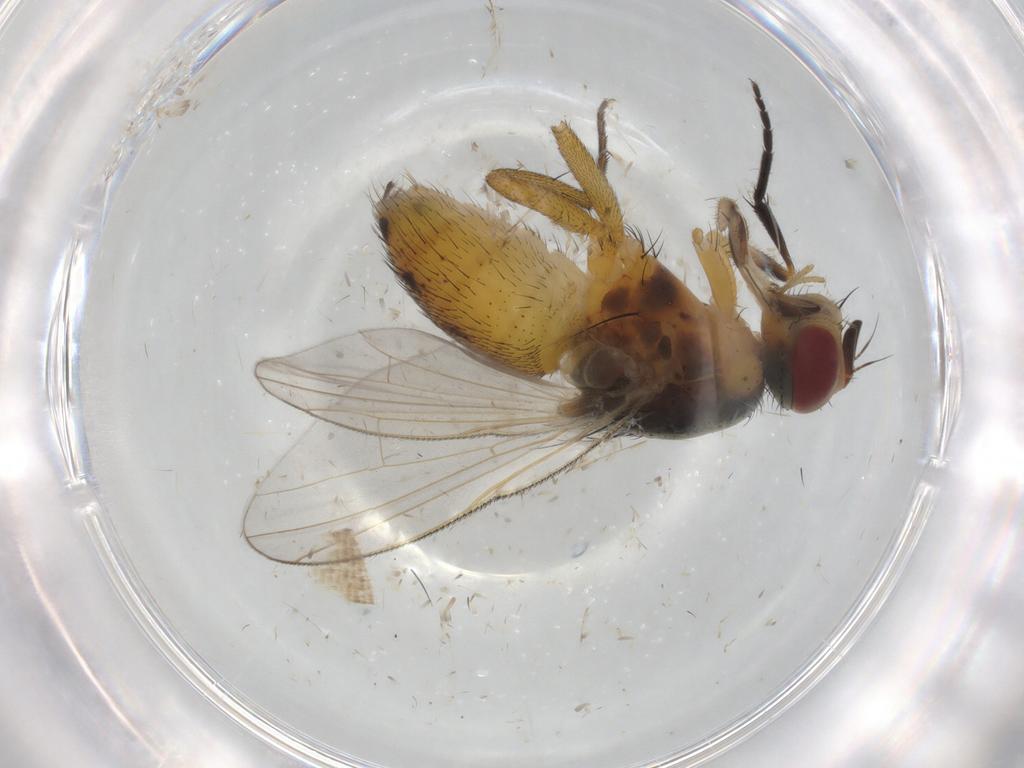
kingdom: Animalia
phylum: Arthropoda
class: Insecta
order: Diptera
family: Muscidae
